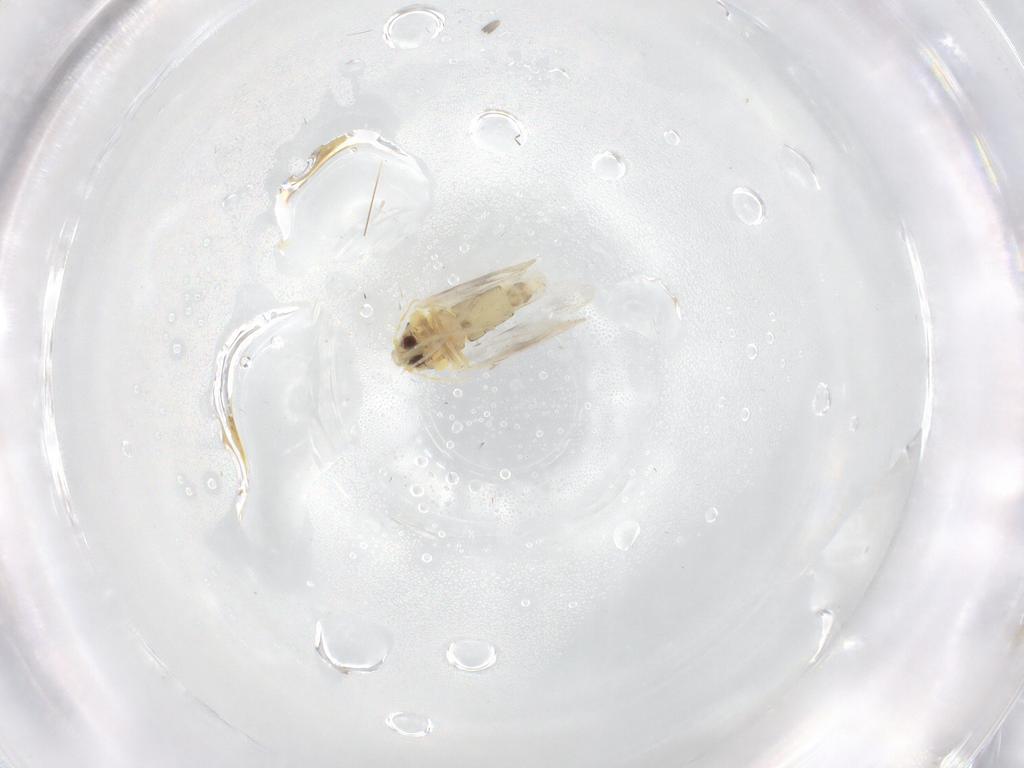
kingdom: Animalia
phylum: Arthropoda
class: Insecta
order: Hemiptera
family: Aleyrodidae
